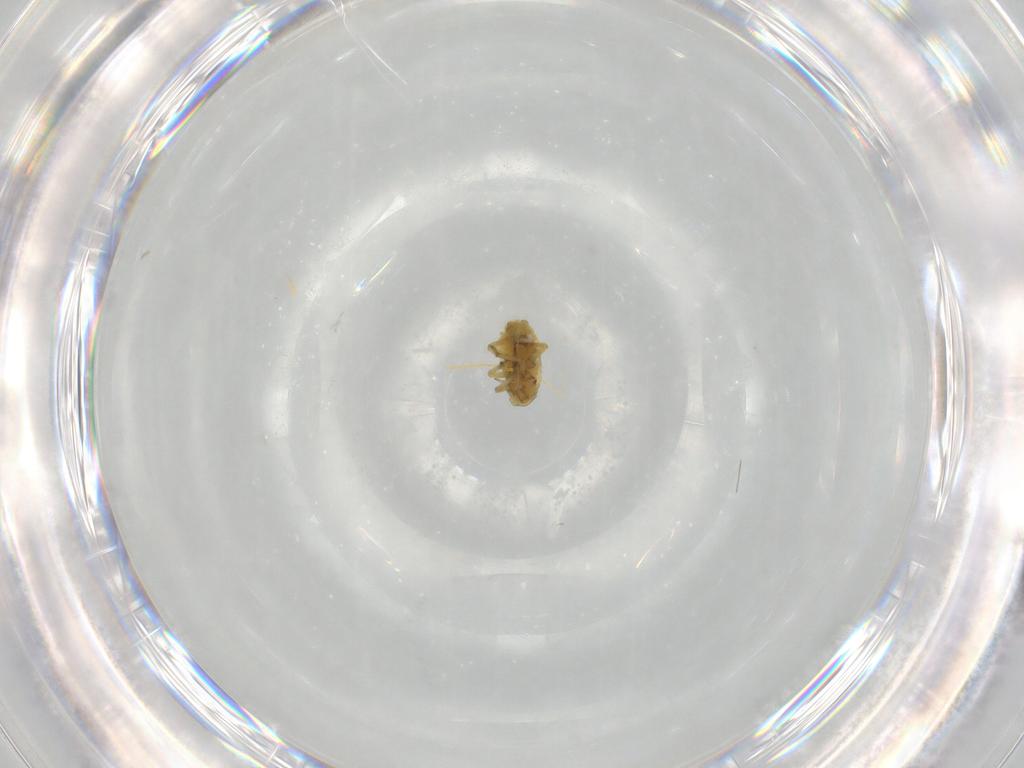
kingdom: Animalia
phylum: Arthropoda
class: Insecta
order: Hemiptera
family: Aphididae
